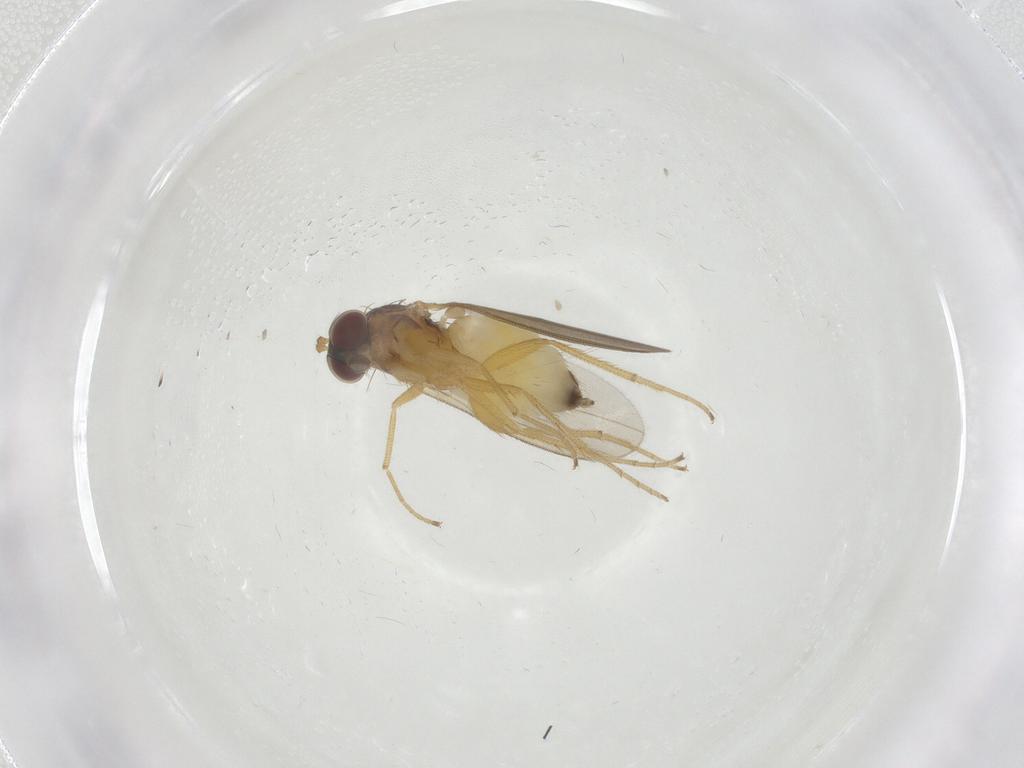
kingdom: Animalia
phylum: Arthropoda
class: Insecta
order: Diptera
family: Dolichopodidae
